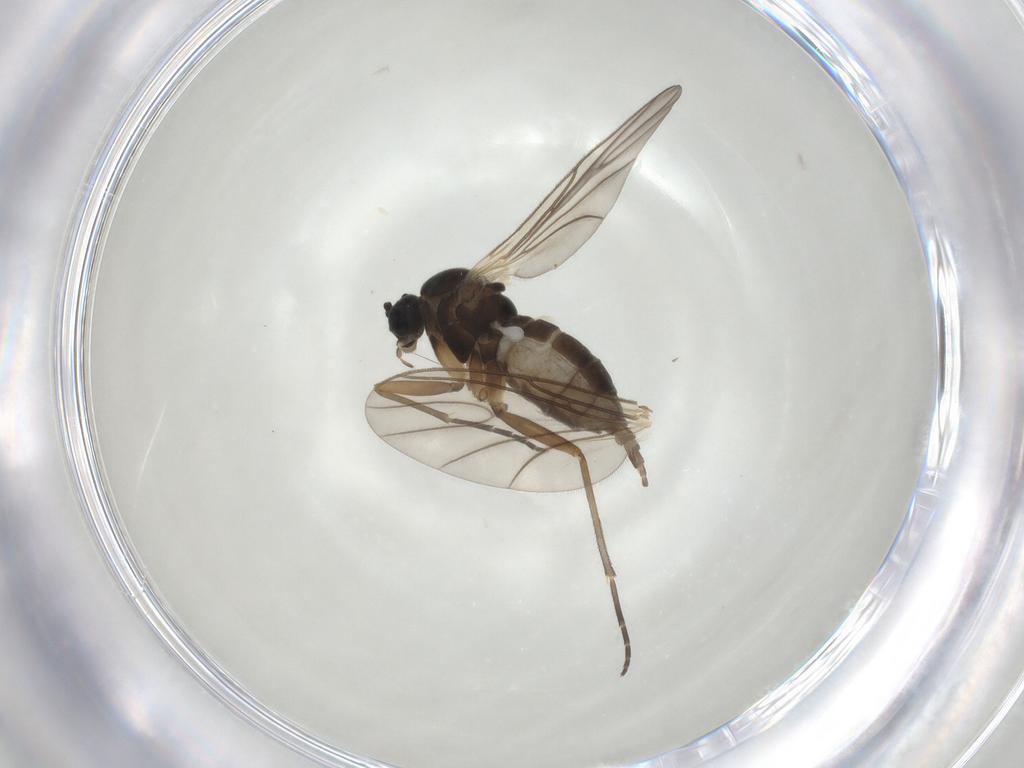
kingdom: Animalia
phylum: Arthropoda
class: Insecta
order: Diptera
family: Sciaridae
